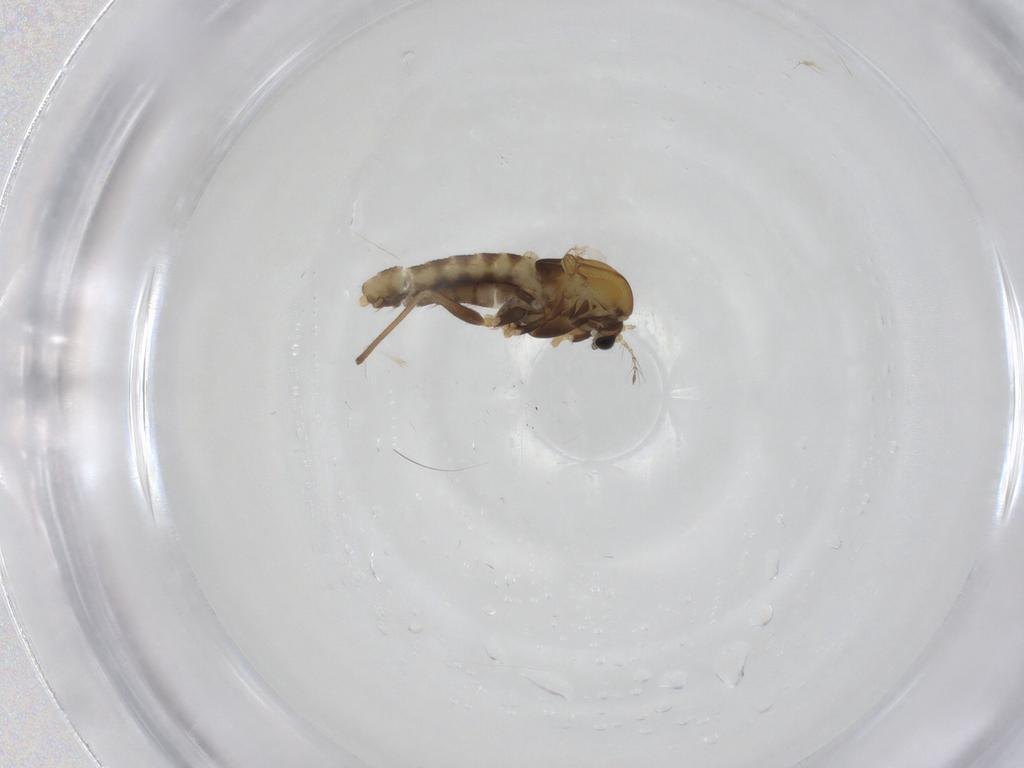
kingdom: Animalia
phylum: Arthropoda
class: Insecta
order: Diptera
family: Chironomidae
